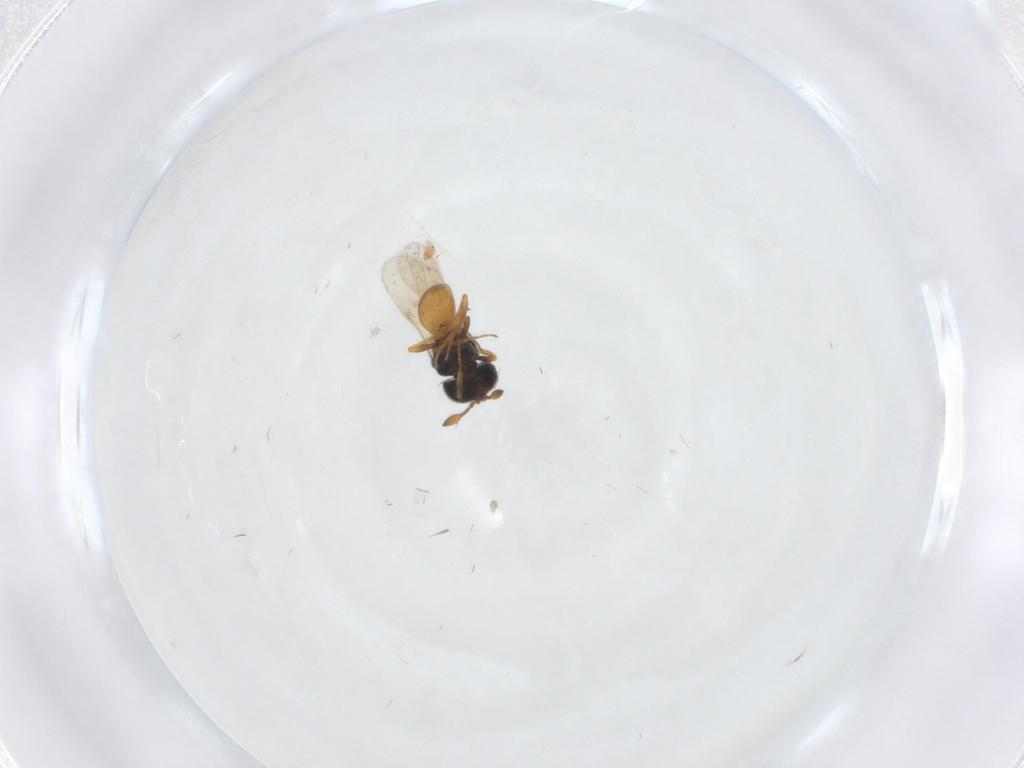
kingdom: Animalia
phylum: Arthropoda
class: Insecta
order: Hymenoptera
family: Scelionidae
